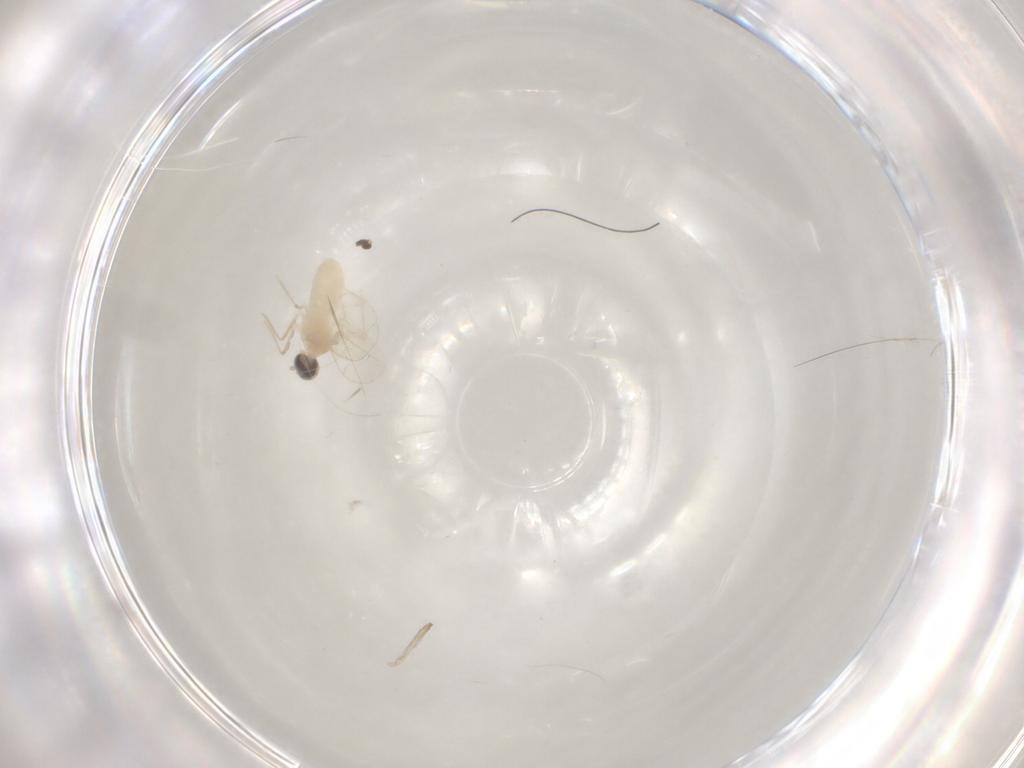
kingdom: Animalia
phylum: Arthropoda
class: Insecta
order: Diptera
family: Cecidomyiidae
